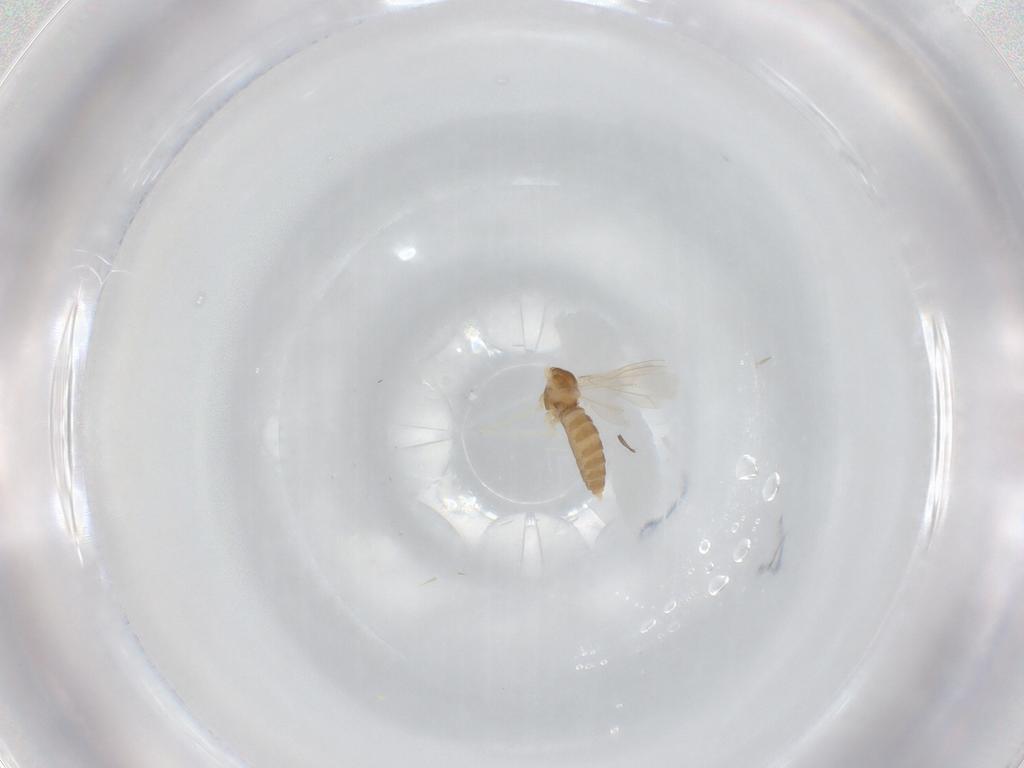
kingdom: Animalia
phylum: Arthropoda
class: Insecta
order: Diptera
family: Cecidomyiidae
